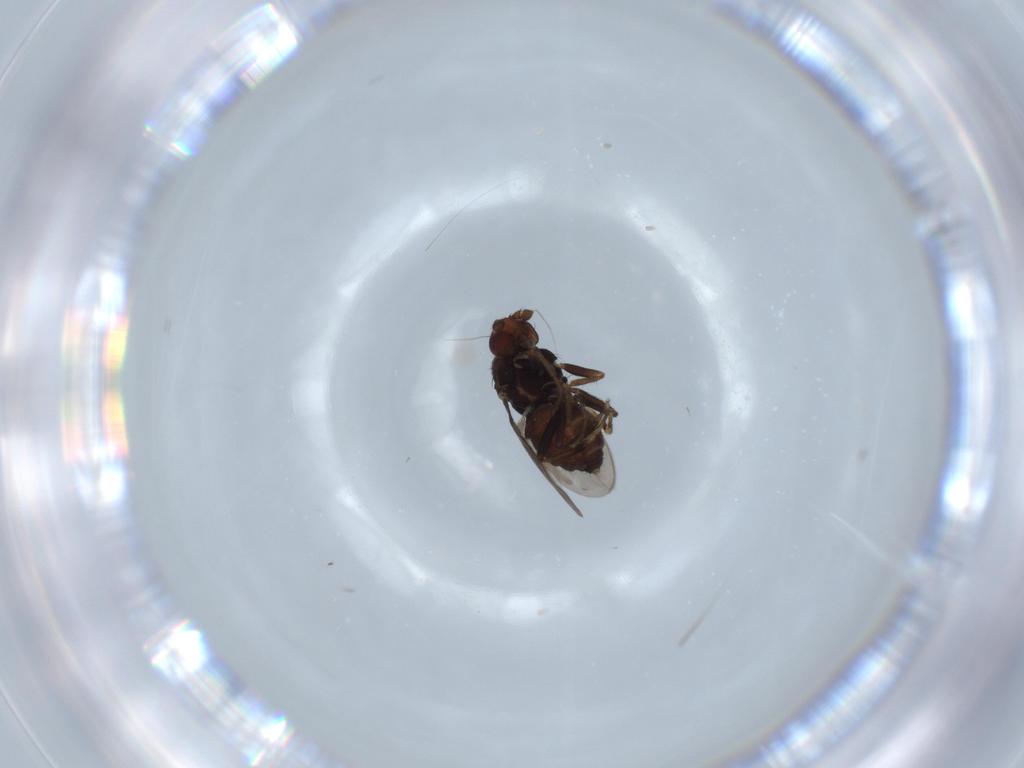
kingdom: Animalia
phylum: Arthropoda
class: Insecta
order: Diptera
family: Sphaeroceridae
